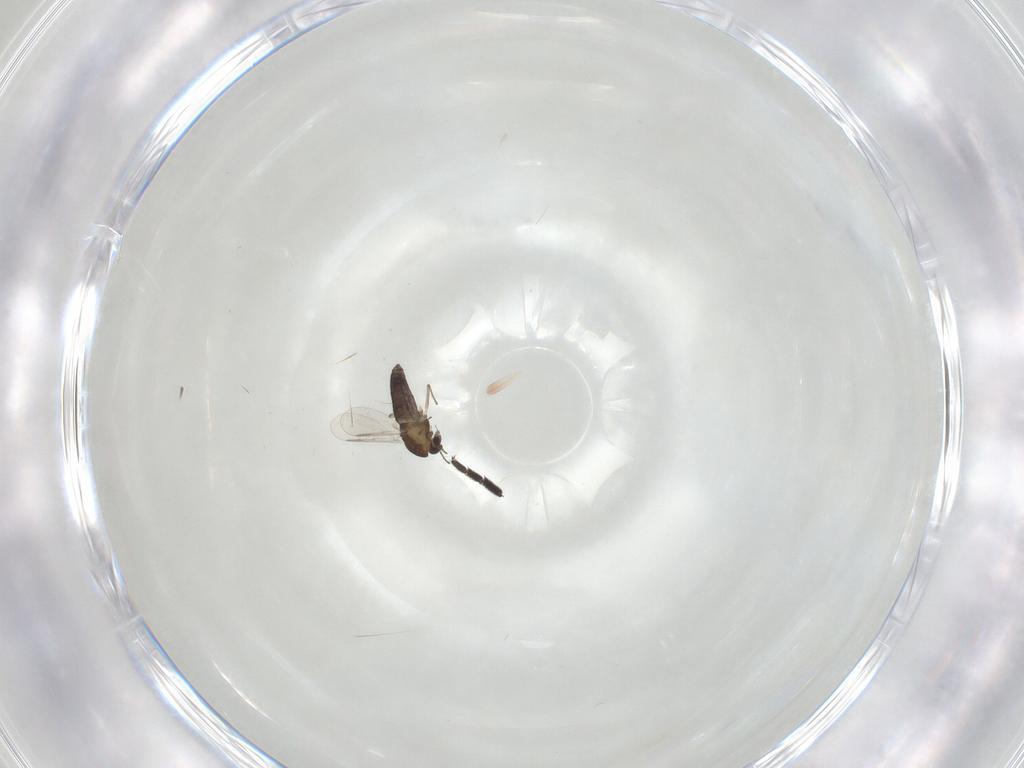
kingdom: Animalia
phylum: Arthropoda
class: Insecta
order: Diptera
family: Chironomidae
